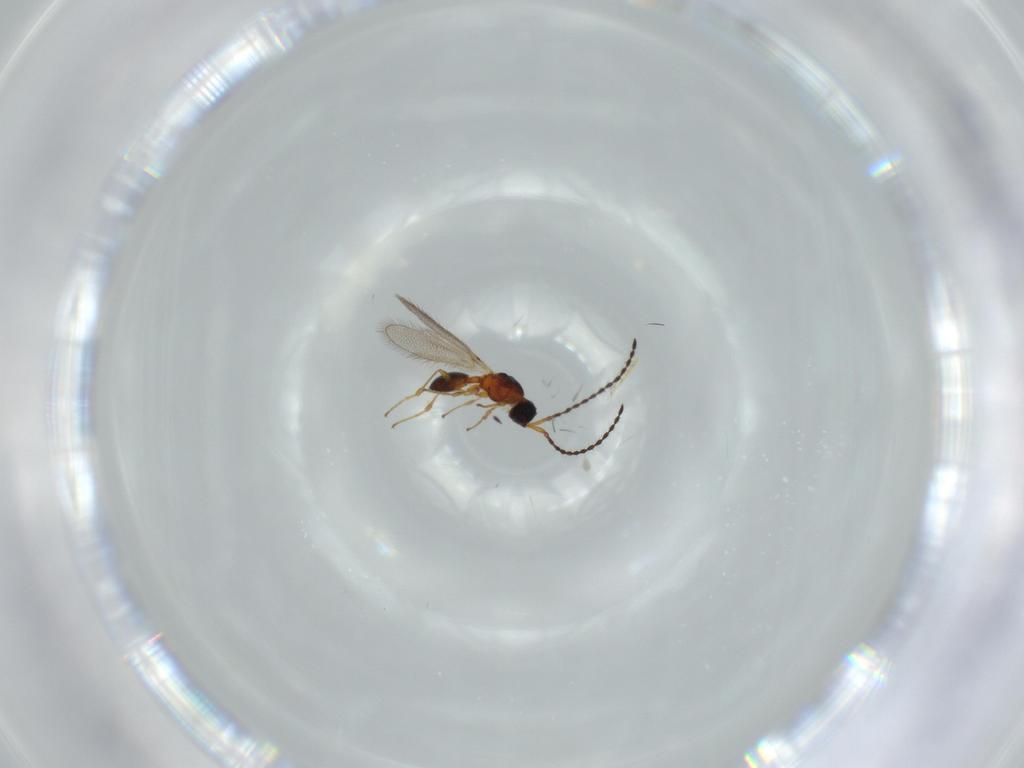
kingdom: Animalia
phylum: Arthropoda
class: Insecta
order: Hymenoptera
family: Diapriidae
